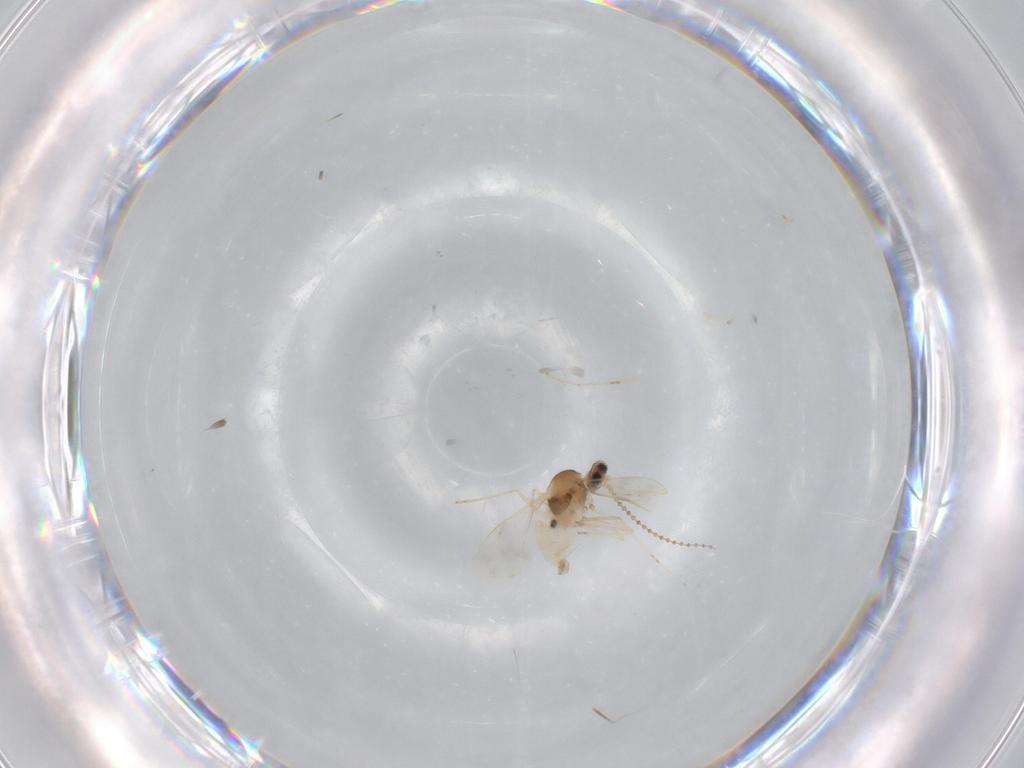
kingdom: Animalia
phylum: Arthropoda
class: Insecta
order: Diptera
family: Cecidomyiidae
